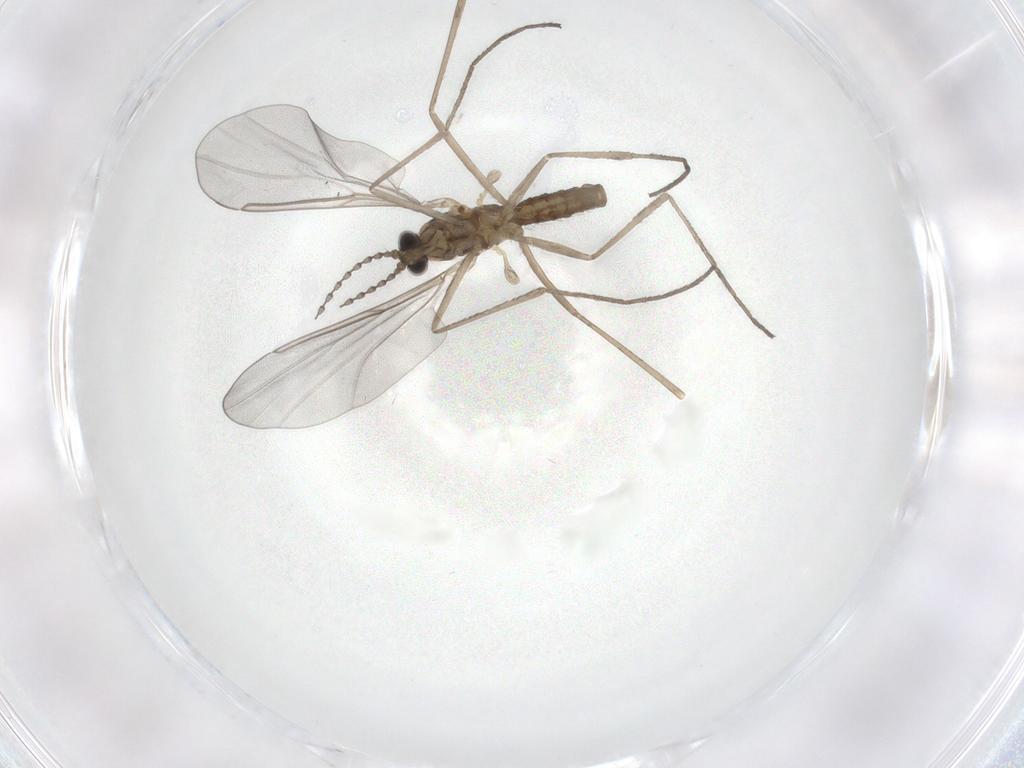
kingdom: Animalia
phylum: Arthropoda
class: Insecta
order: Diptera
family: Cecidomyiidae
